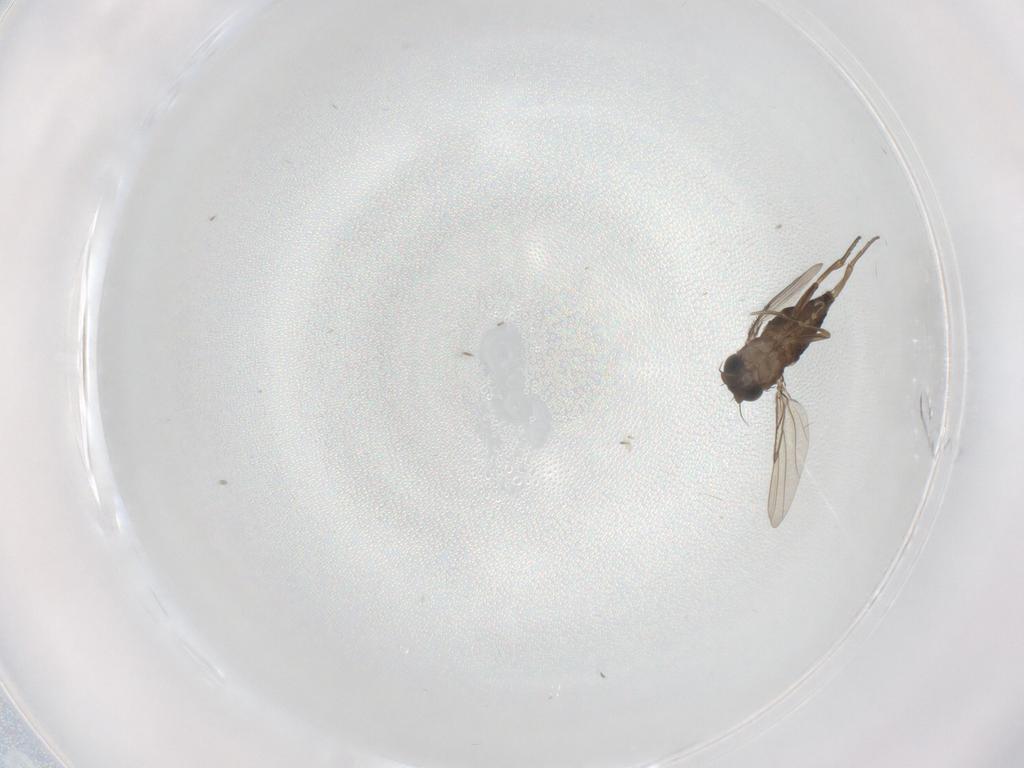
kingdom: Animalia
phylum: Arthropoda
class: Insecta
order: Diptera
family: Phoridae
